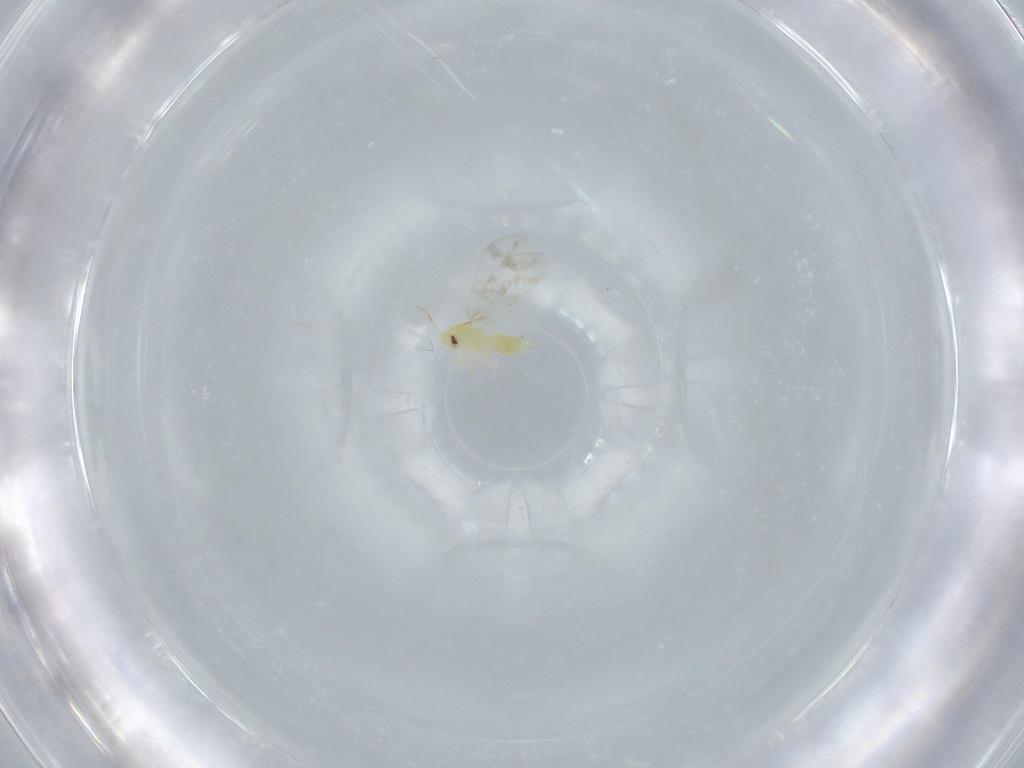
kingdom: Animalia
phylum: Arthropoda
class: Insecta
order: Hemiptera
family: Aleyrodidae
